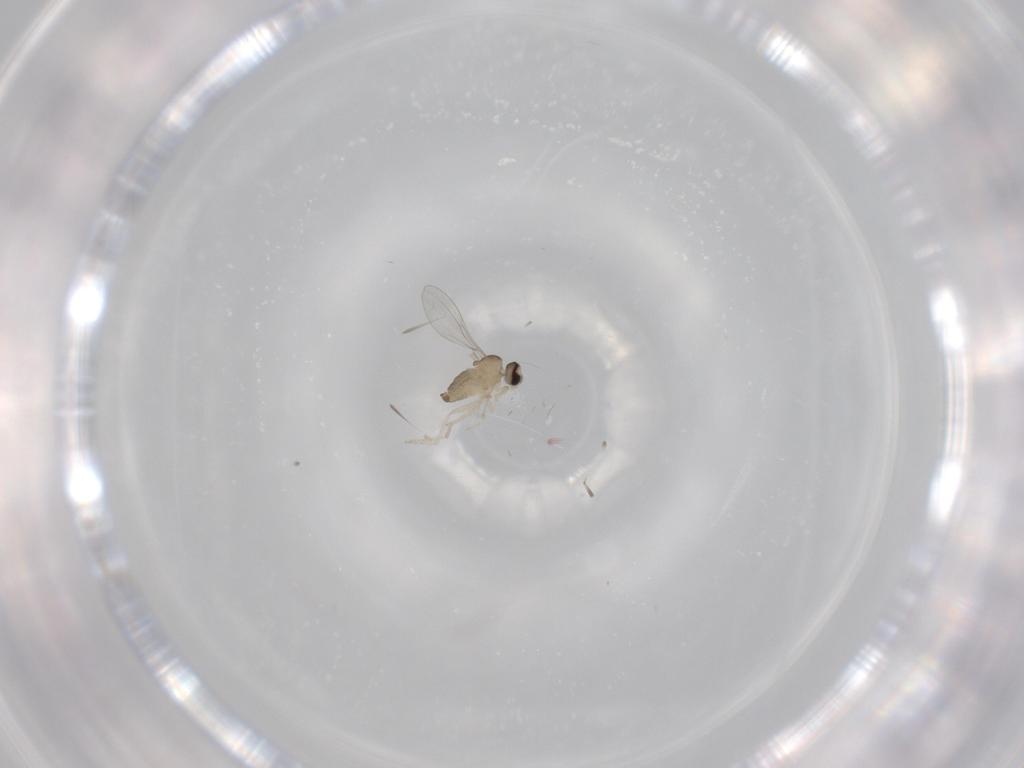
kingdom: Animalia
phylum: Arthropoda
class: Insecta
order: Diptera
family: Cecidomyiidae
